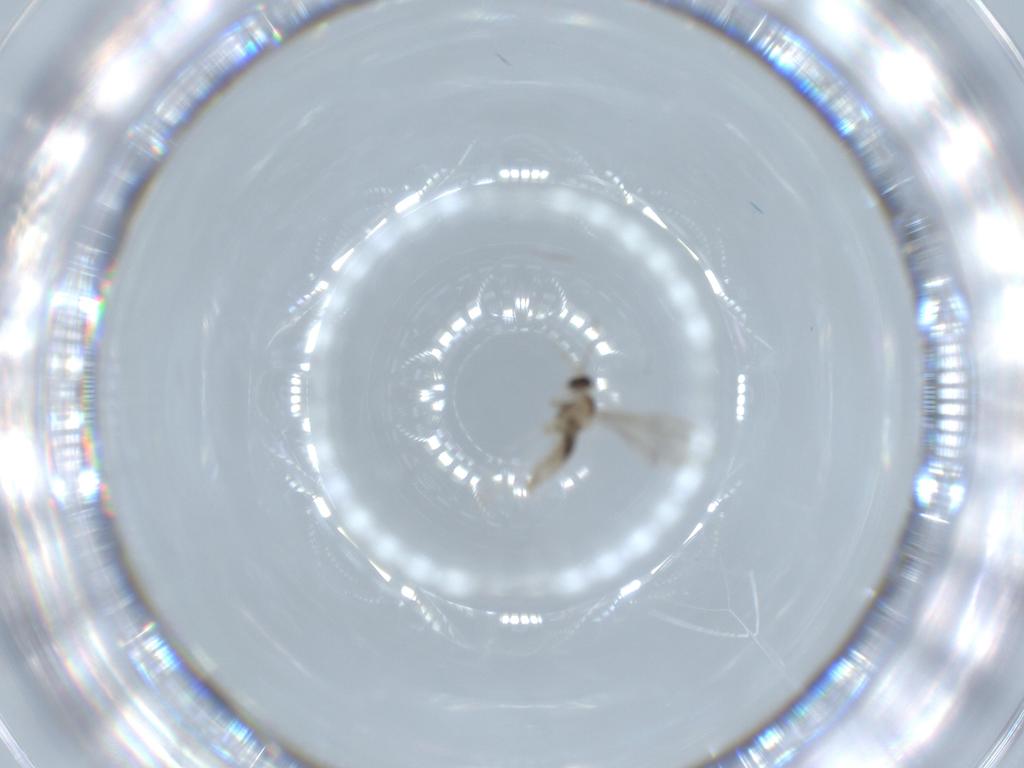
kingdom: Animalia
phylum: Arthropoda
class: Insecta
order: Diptera
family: Cecidomyiidae
